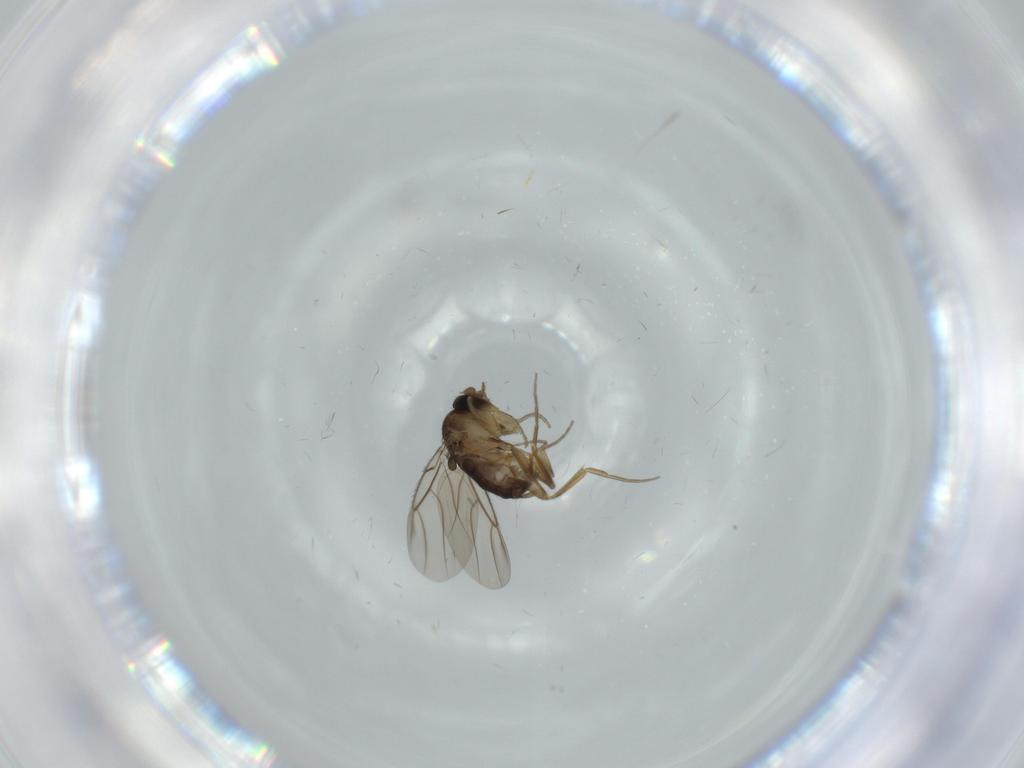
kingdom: Animalia
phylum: Arthropoda
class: Insecta
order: Diptera
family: Phoridae
